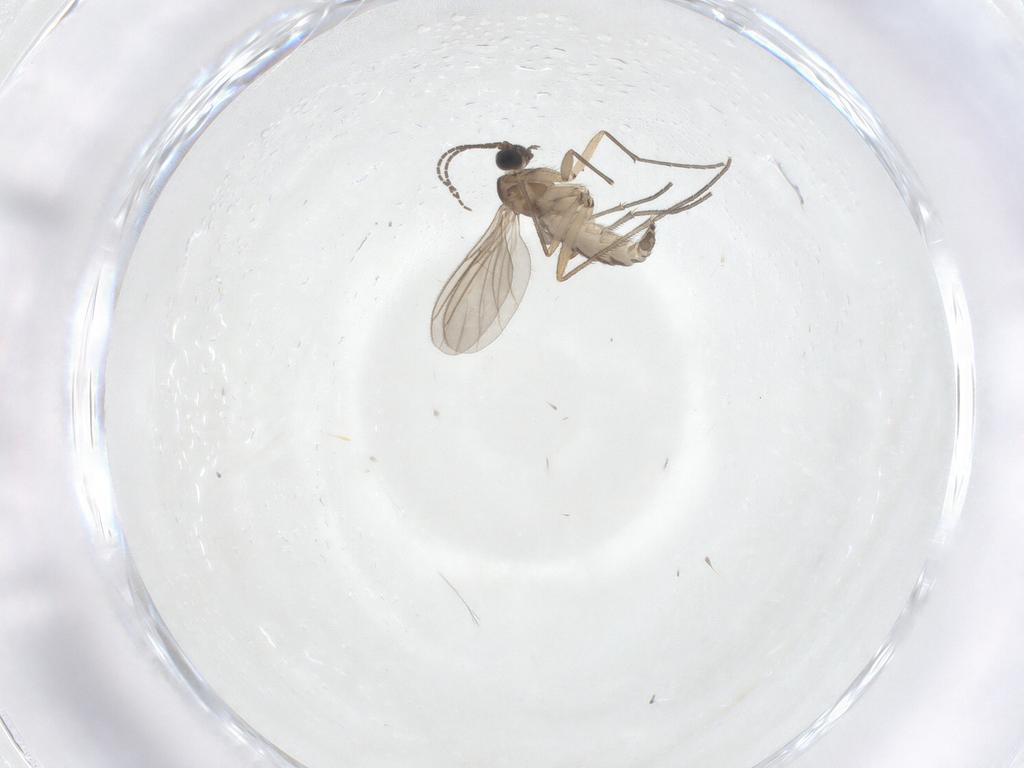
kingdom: Animalia
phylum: Arthropoda
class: Insecta
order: Diptera
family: Sciaridae
